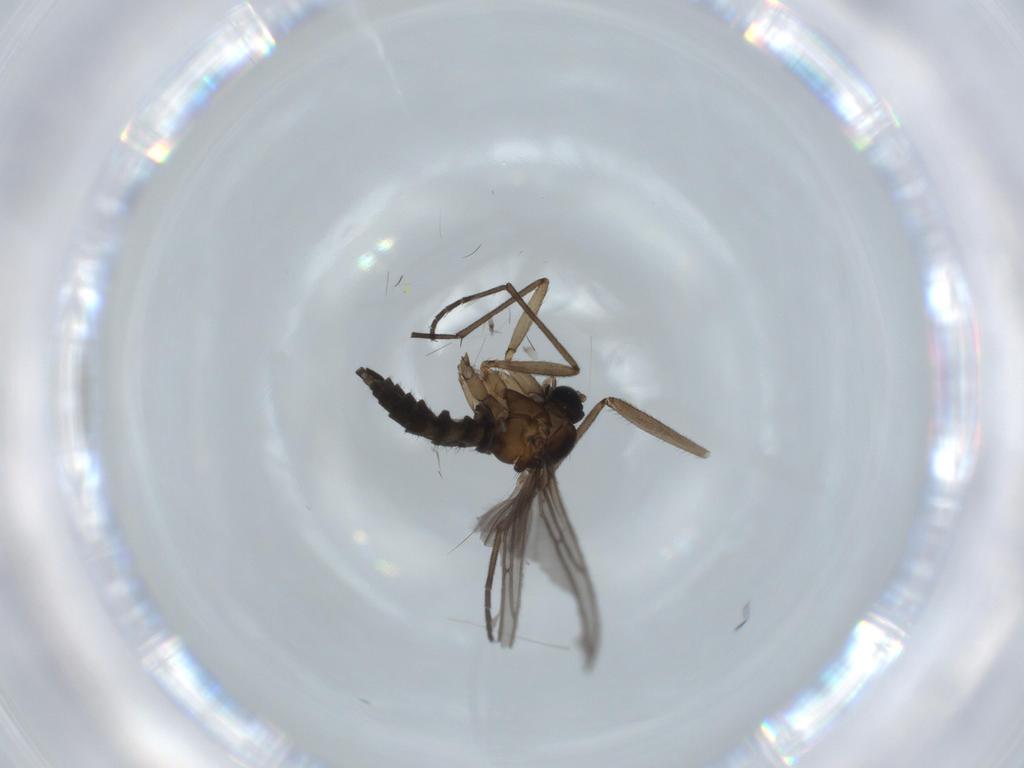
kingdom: Animalia
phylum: Arthropoda
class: Insecta
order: Diptera
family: Sciaridae
